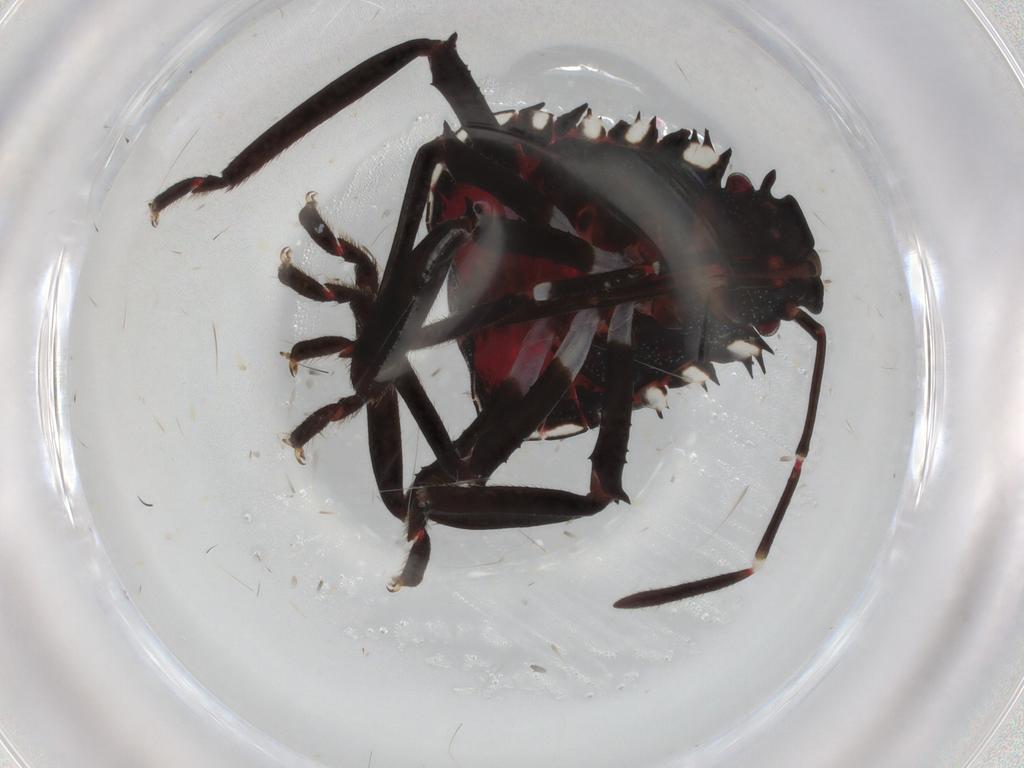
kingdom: Animalia
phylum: Arthropoda
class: Insecta
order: Hemiptera
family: Pentatomidae
